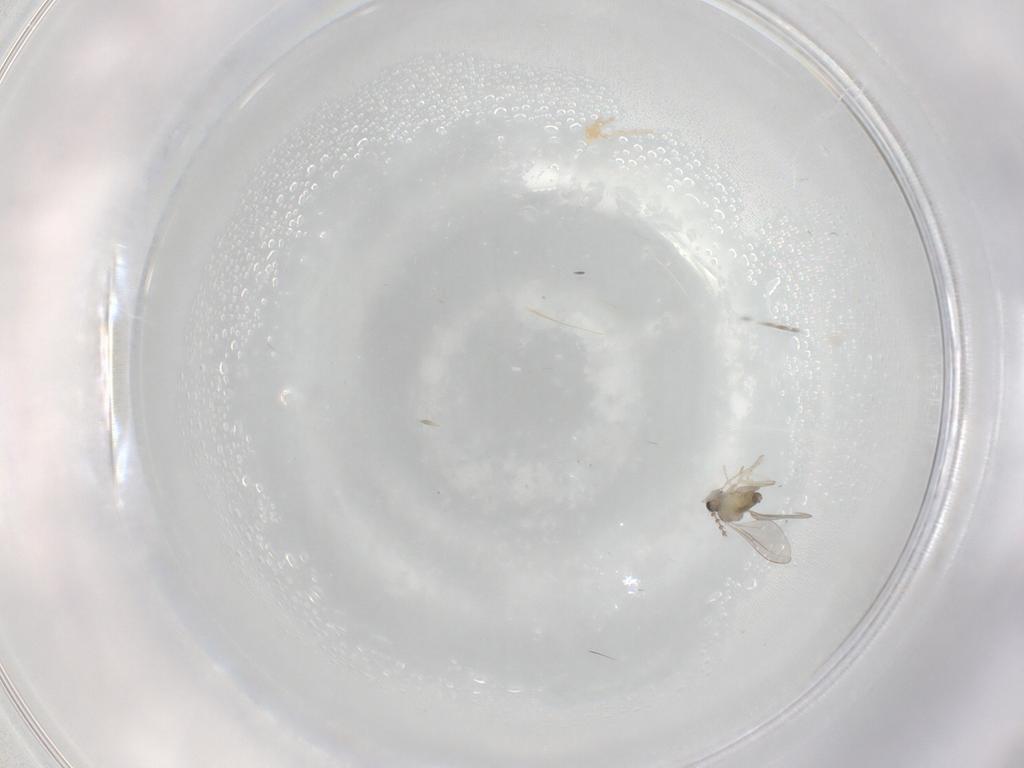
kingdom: Animalia
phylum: Arthropoda
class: Insecta
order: Diptera
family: Cecidomyiidae
